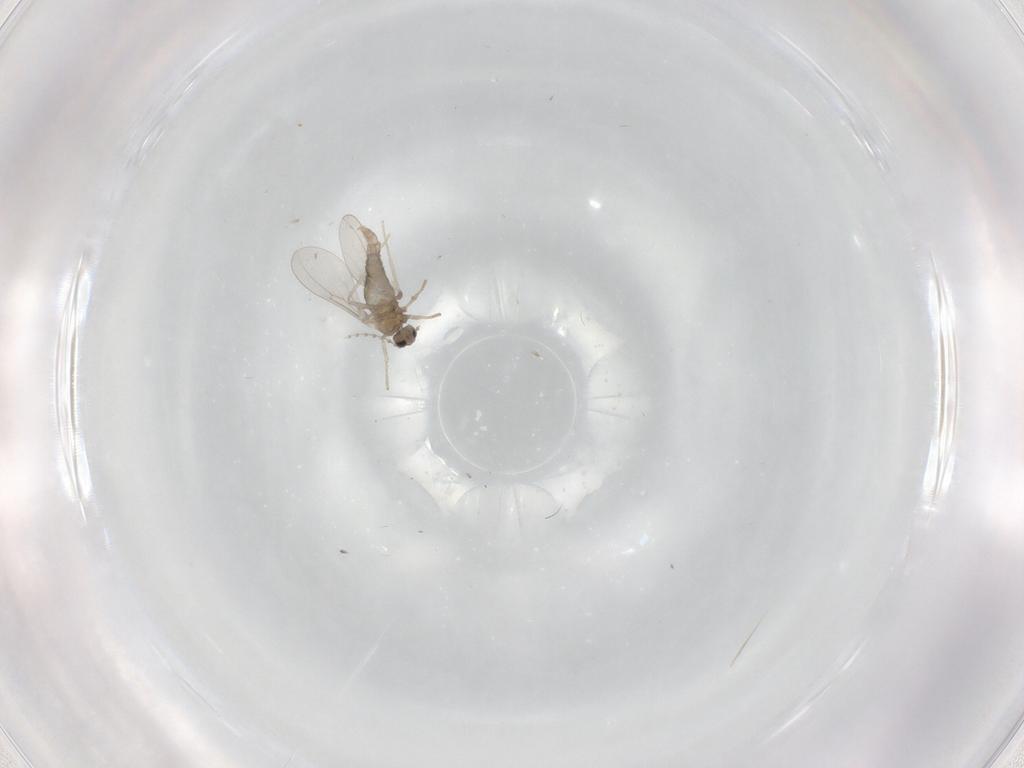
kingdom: Animalia
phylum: Arthropoda
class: Insecta
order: Diptera
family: Cecidomyiidae
